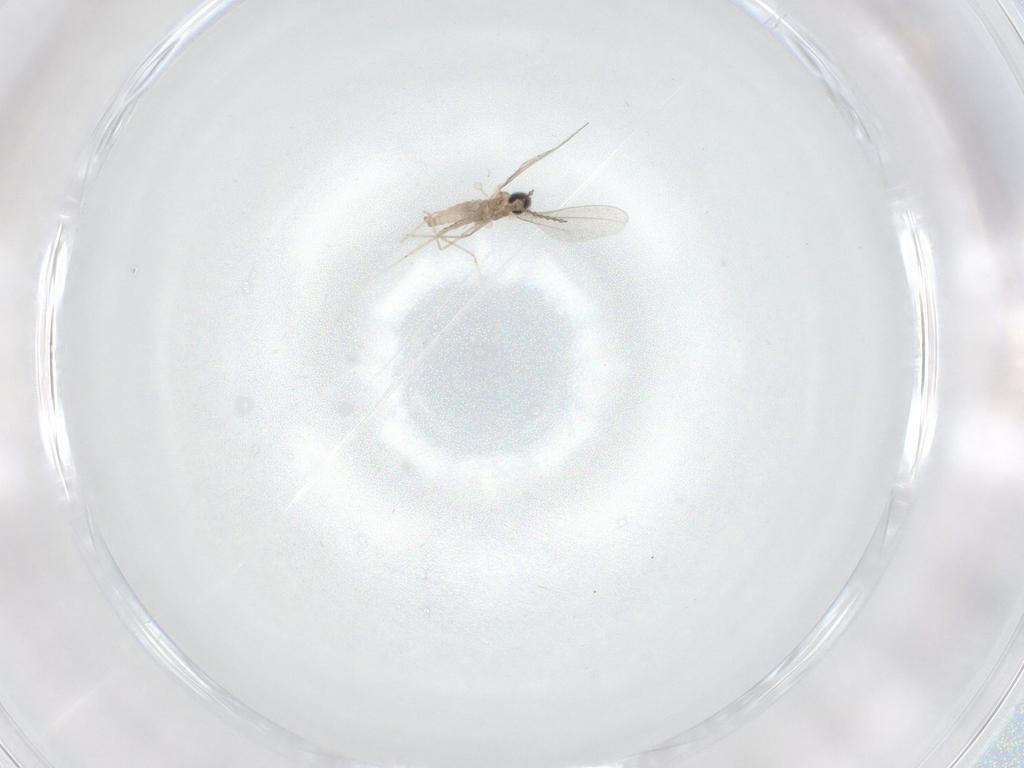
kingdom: Animalia
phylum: Arthropoda
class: Insecta
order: Diptera
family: Cecidomyiidae
